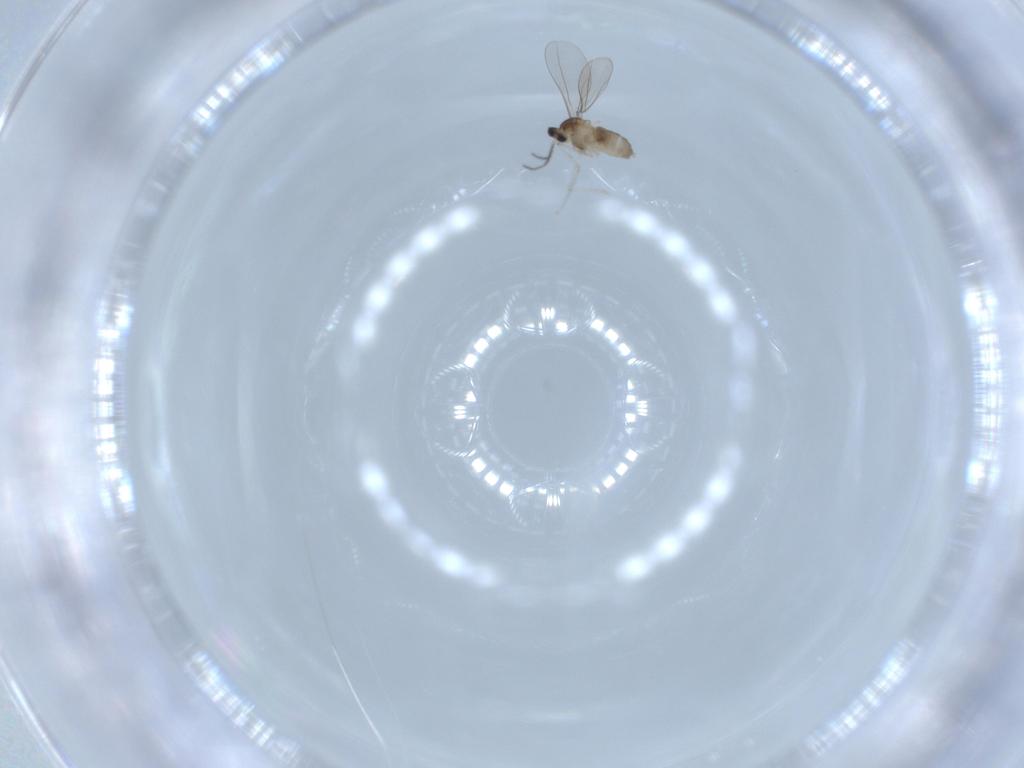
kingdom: Animalia
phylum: Arthropoda
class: Insecta
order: Diptera
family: Cecidomyiidae
